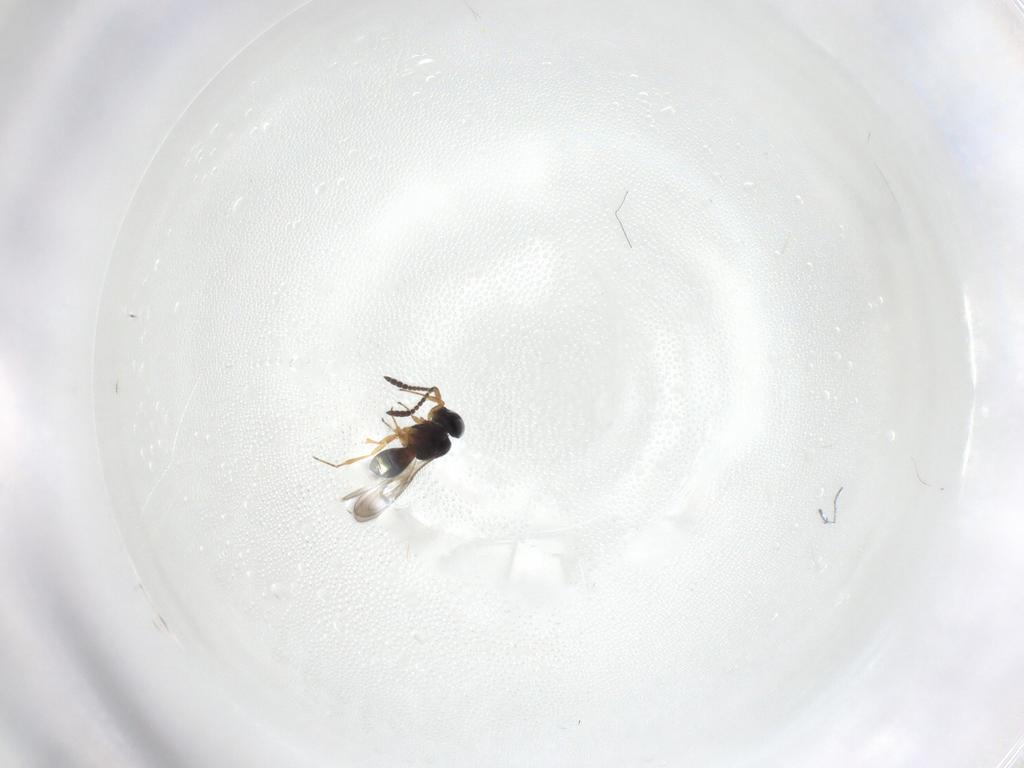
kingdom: Animalia
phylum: Arthropoda
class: Insecta
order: Hymenoptera
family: Scelionidae
